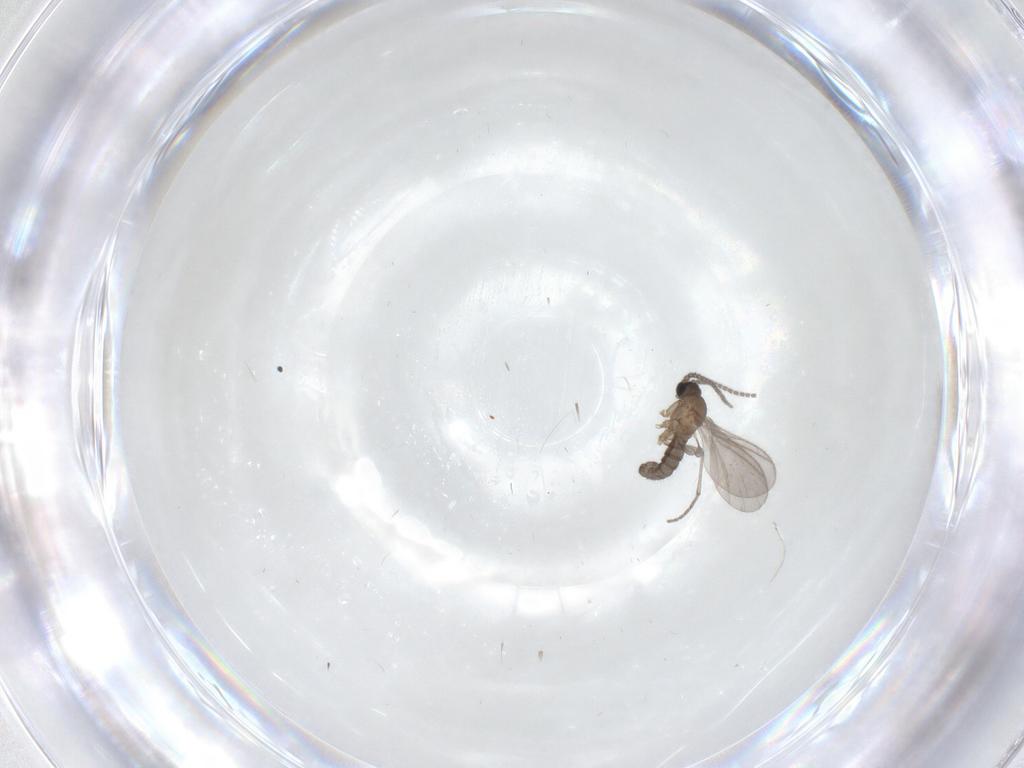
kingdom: Animalia
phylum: Arthropoda
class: Insecta
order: Diptera
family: Sciaridae
